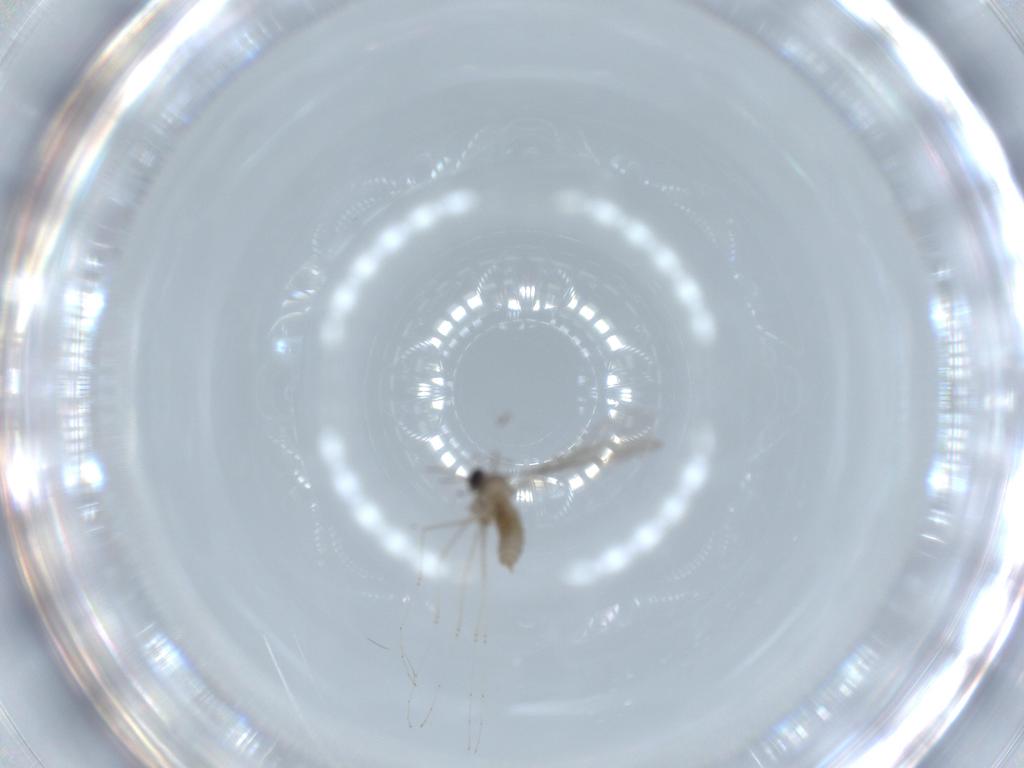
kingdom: Animalia
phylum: Arthropoda
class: Insecta
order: Diptera
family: Cecidomyiidae
